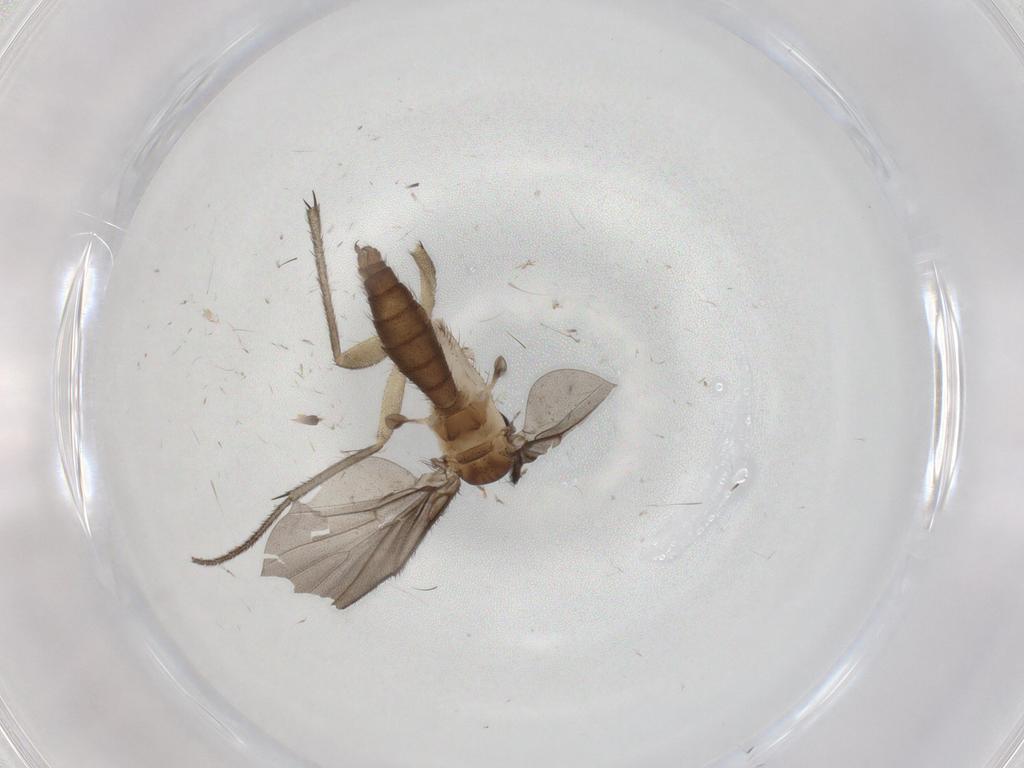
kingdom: Animalia
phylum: Arthropoda
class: Insecta
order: Diptera
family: Diadocidiidae
